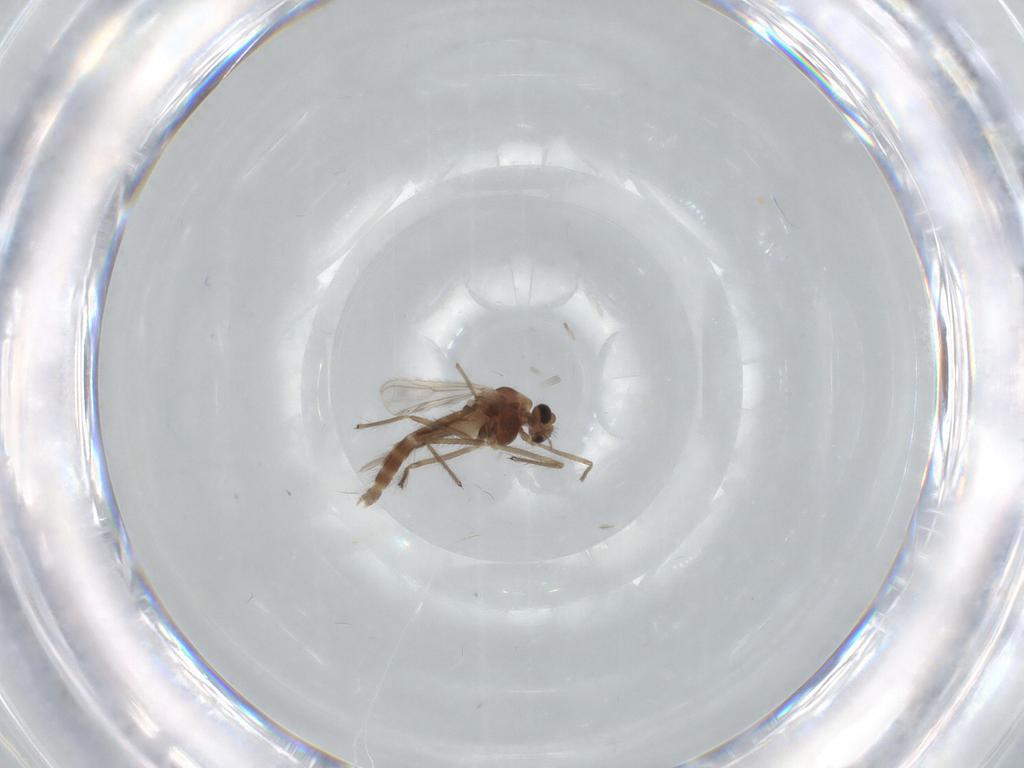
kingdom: Animalia
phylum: Arthropoda
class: Insecta
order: Diptera
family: Chironomidae
